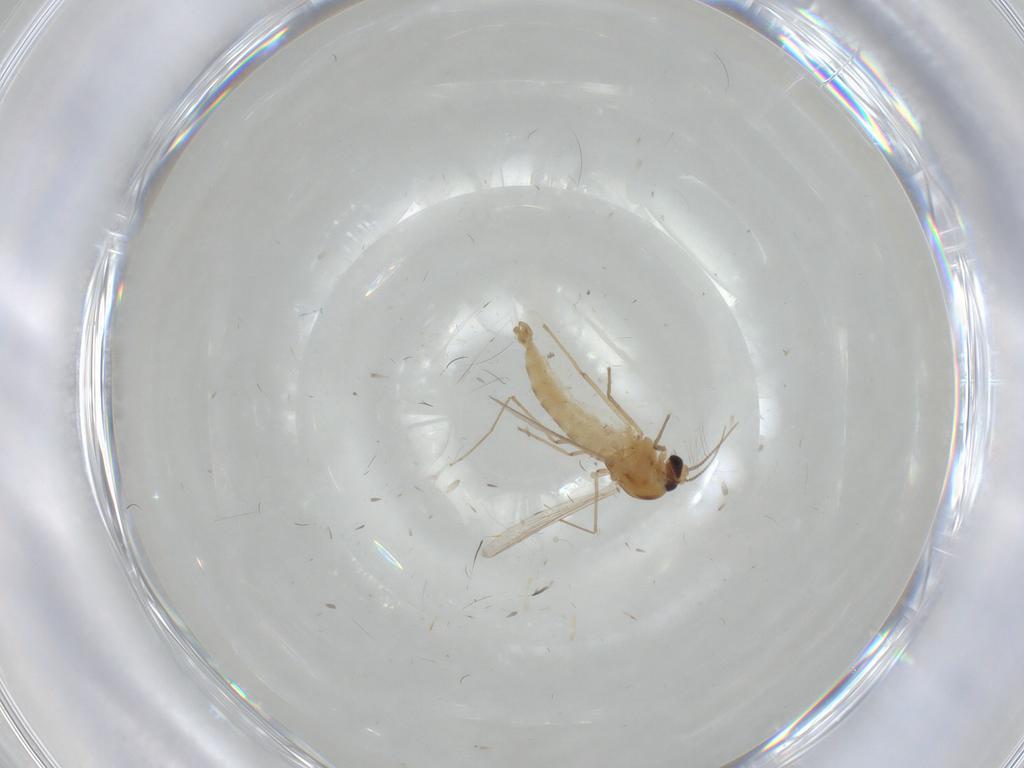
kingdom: Animalia
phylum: Arthropoda
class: Insecta
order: Diptera
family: Chironomidae
